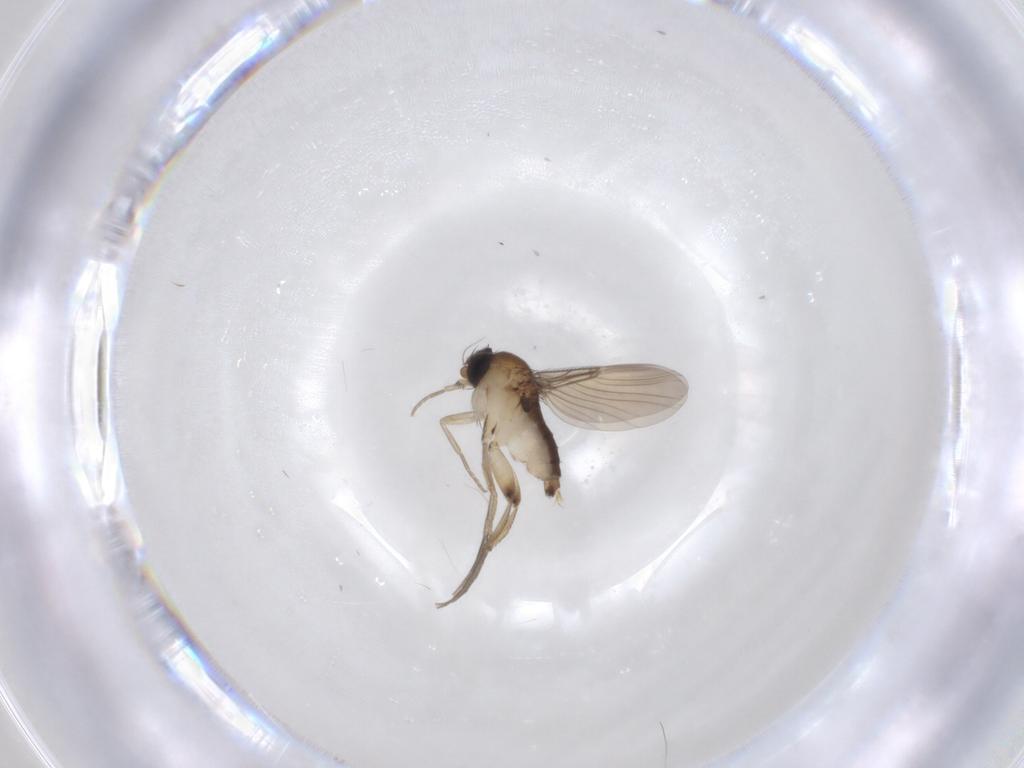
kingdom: Animalia
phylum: Arthropoda
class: Insecta
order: Diptera
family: Phoridae
